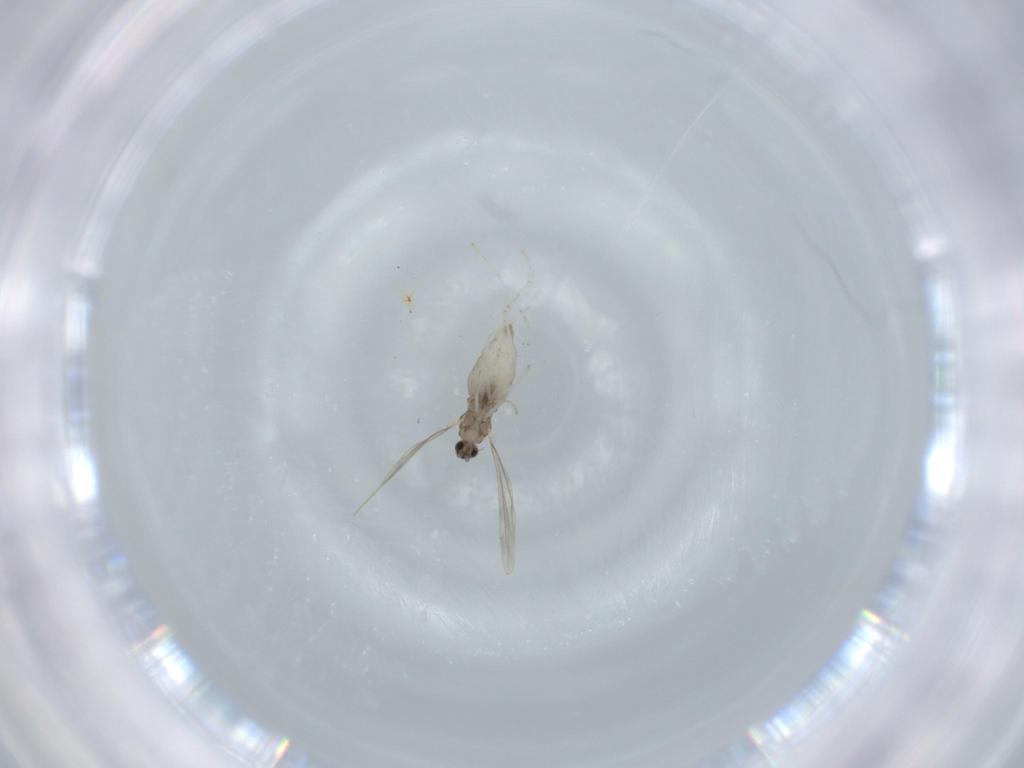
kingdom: Animalia
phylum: Arthropoda
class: Insecta
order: Diptera
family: Cecidomyiidae
